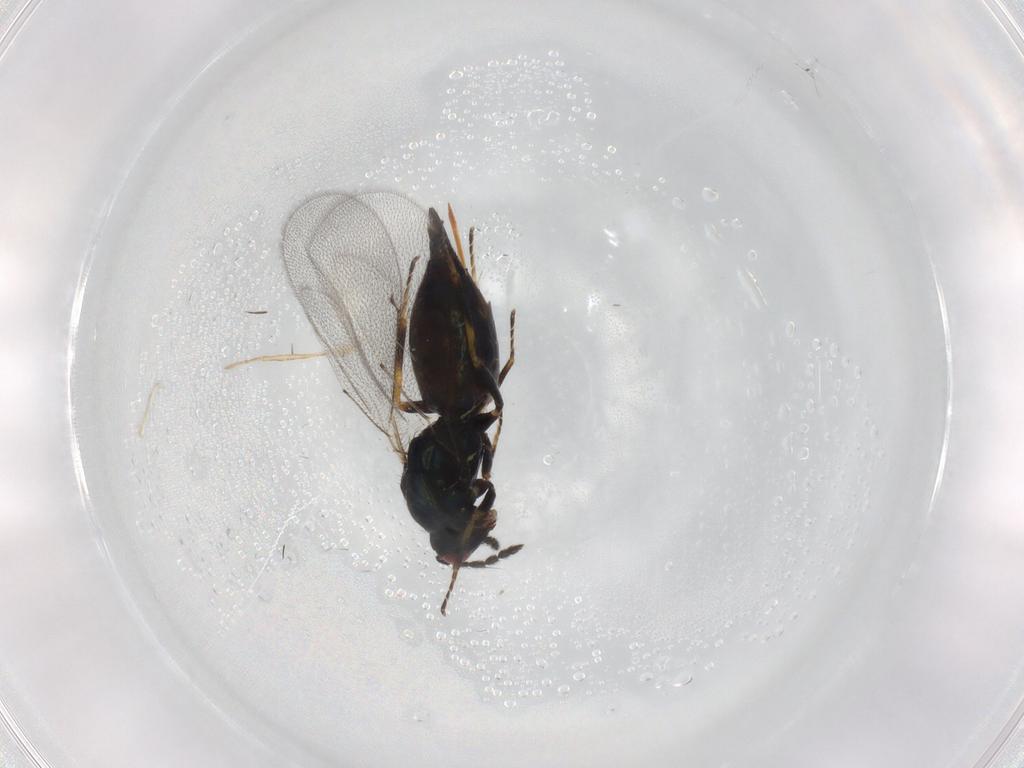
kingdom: Animalia
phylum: Arthropoda
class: Insecta
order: Hymenoptera
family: Eulophidae
